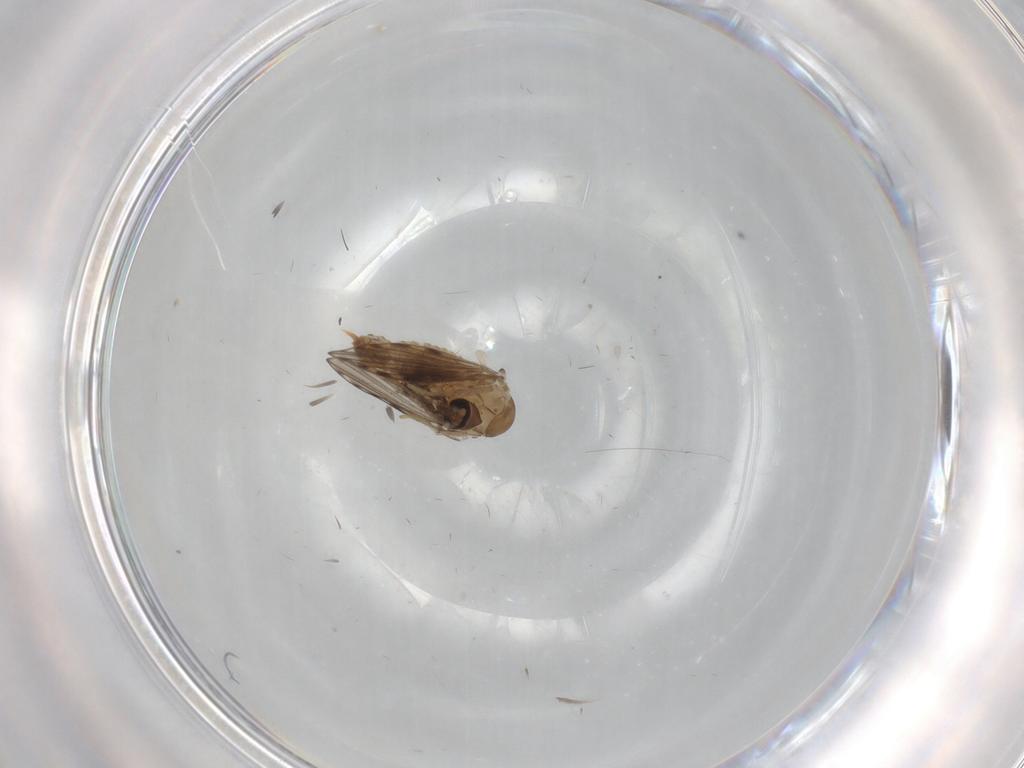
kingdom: Animalia
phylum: Arthropoda
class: Insecta
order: Diptera
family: Psychodidae
